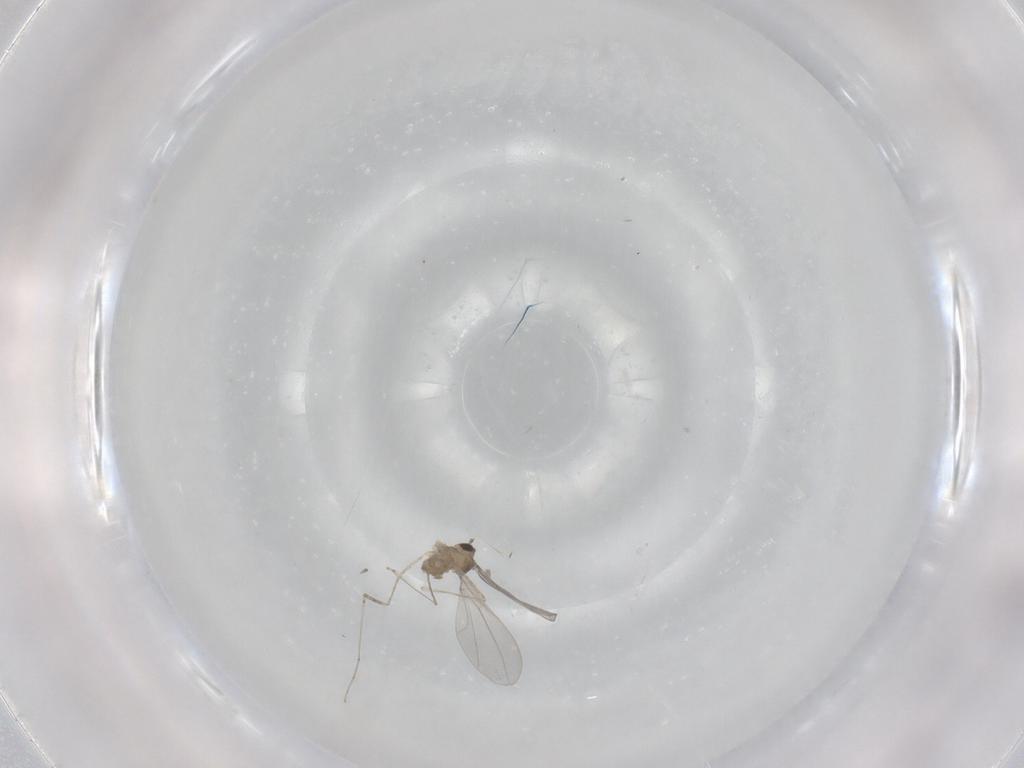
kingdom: Animalia
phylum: Arthropoda
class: Insecta
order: Diptera
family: Cecidomyiidae
